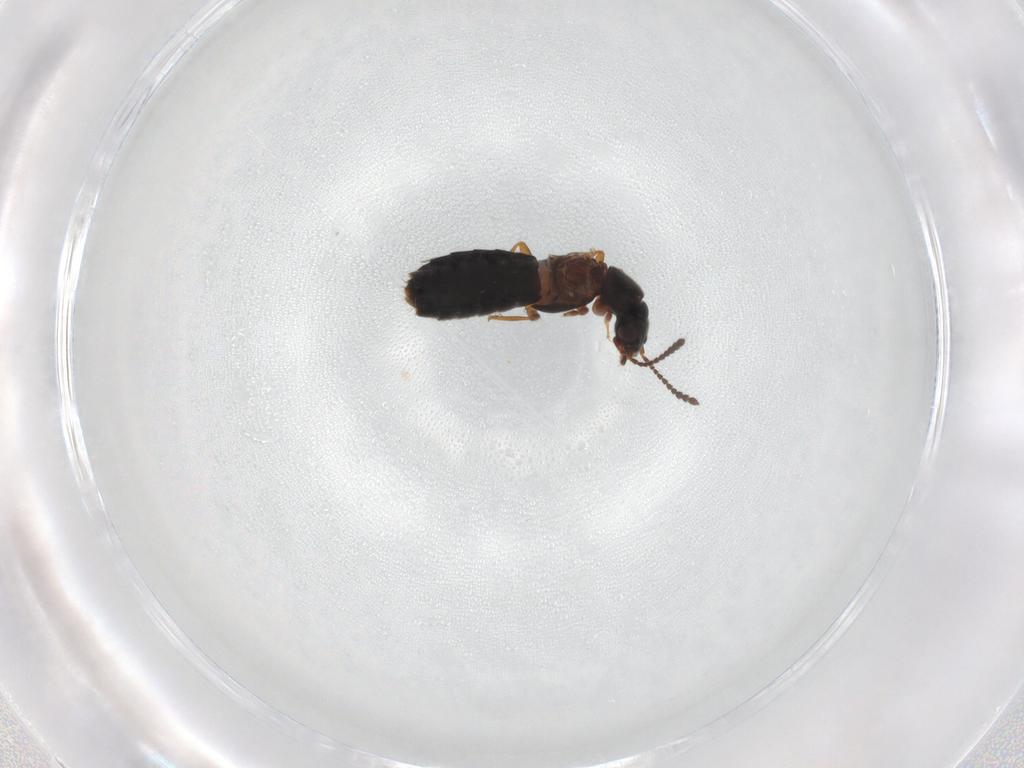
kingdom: Animalia
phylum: Arthropoda
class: Insecta
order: Coleoptera
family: Staphylinidae
